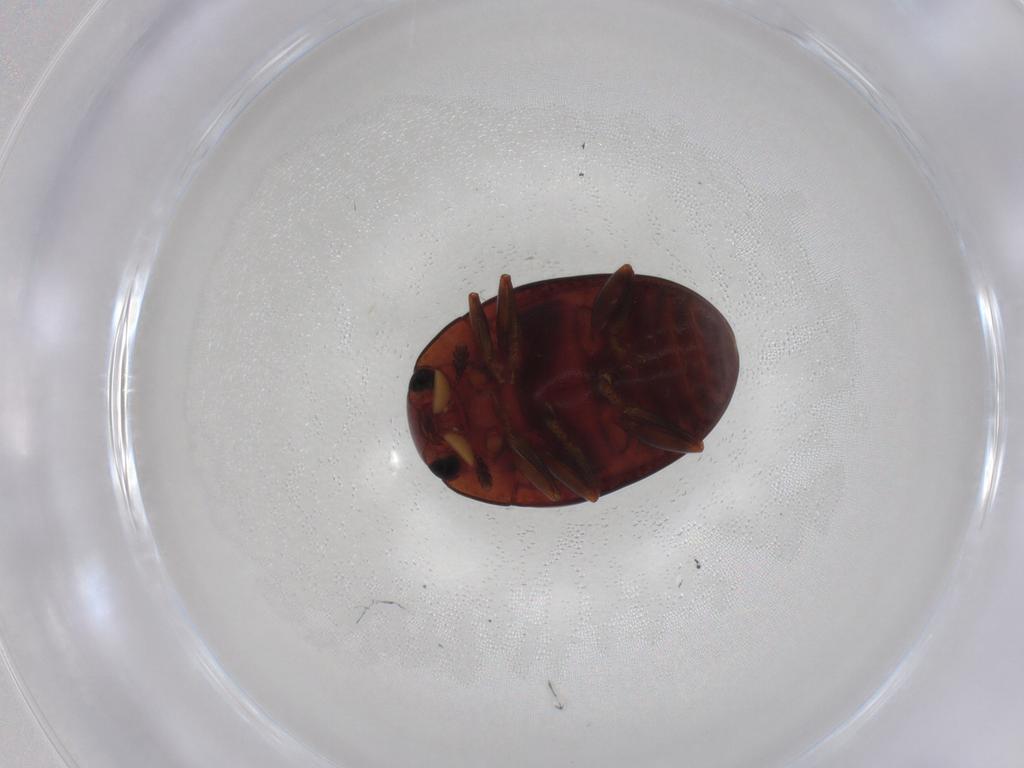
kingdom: Animalia
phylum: Arthropoda
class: Insecta
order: Coleoptera
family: Erotylidae
